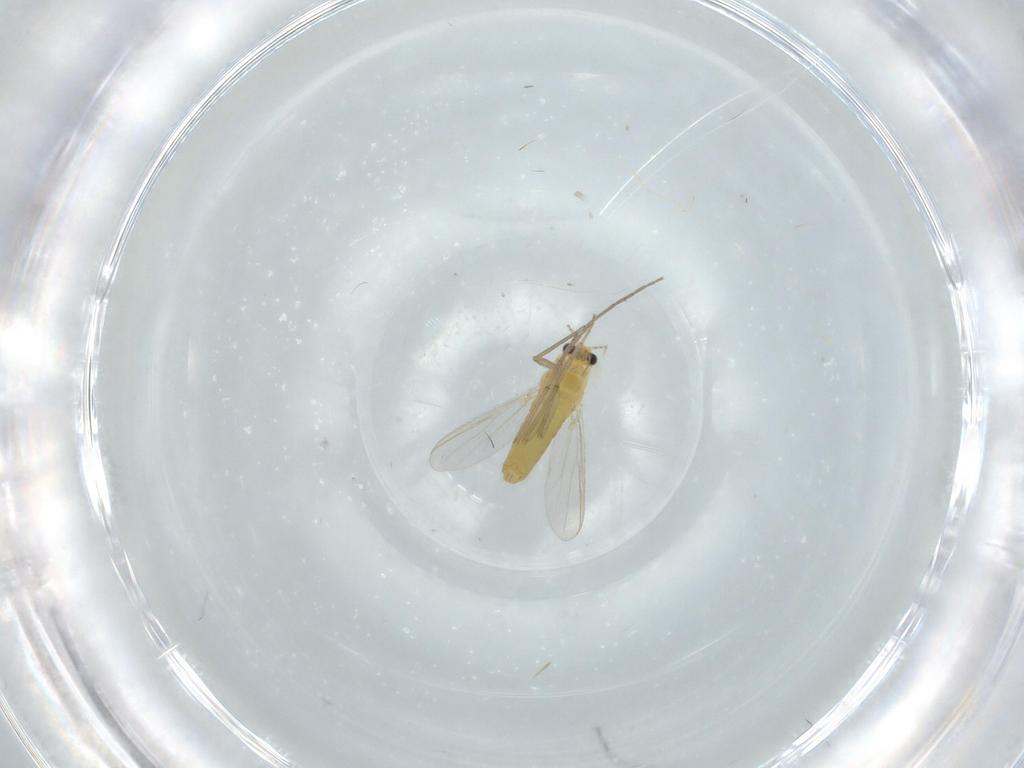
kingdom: Animalia
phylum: Arthropoda
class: Insecta
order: Diptera
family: Chironomidae
